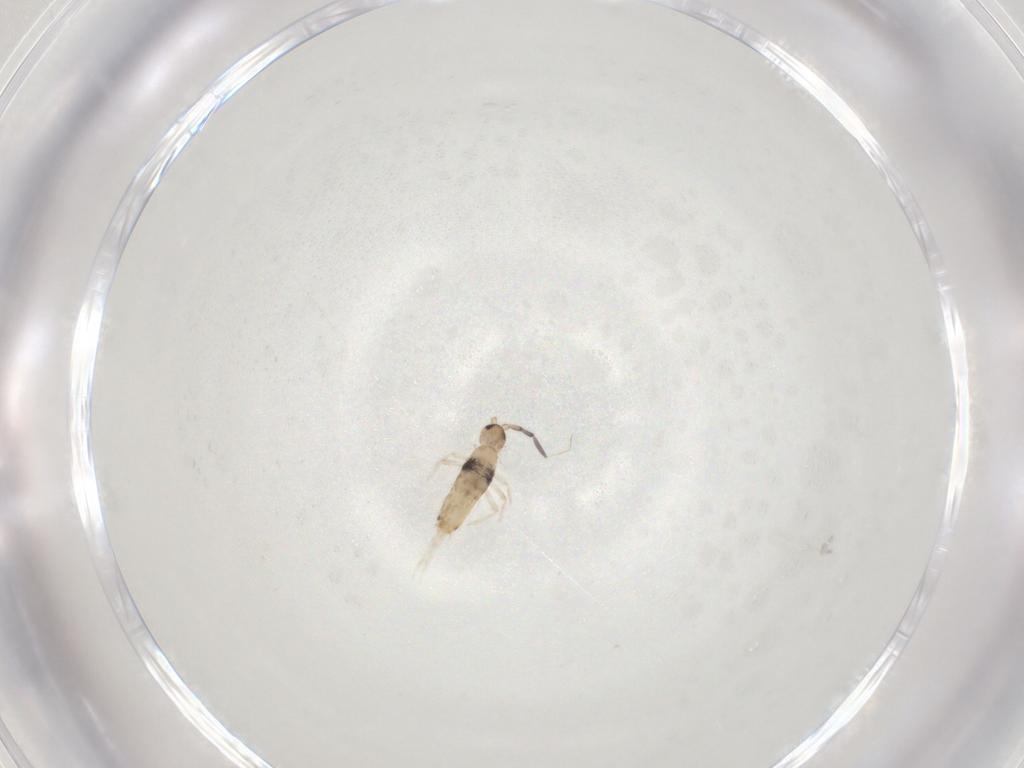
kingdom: Animalia
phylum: Arthropoda
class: Collembola
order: Entomobryomorpha
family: Entomobryidae
